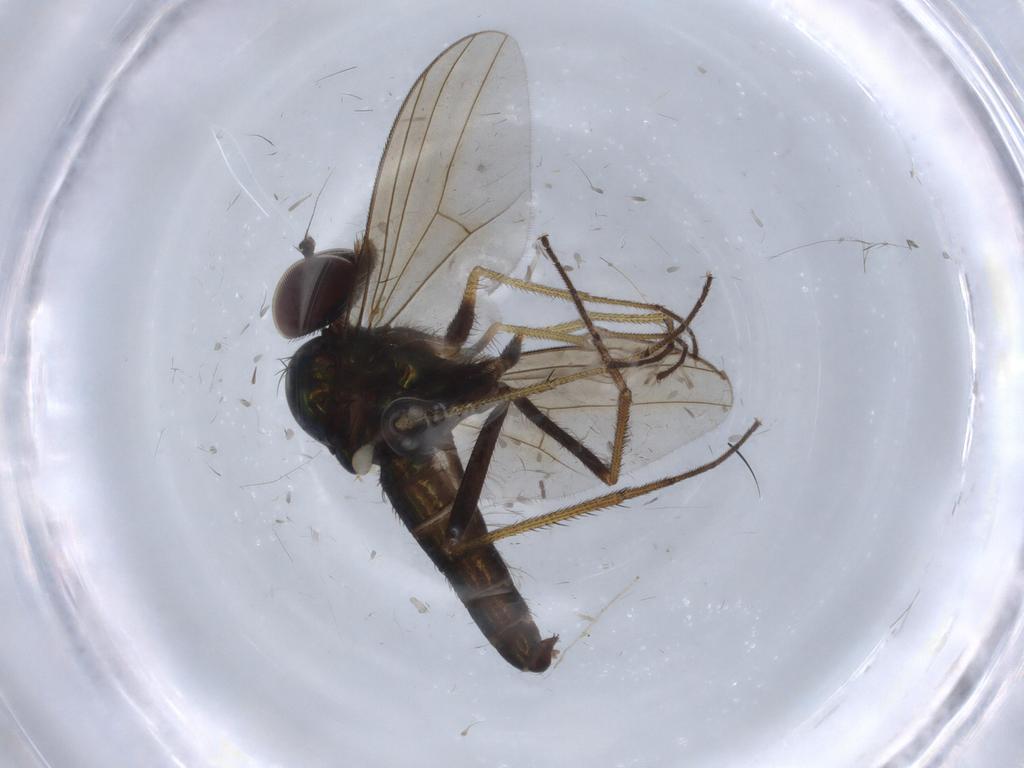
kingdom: Animalia
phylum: Arthropoda
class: Insecta
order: Diptera
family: Dolichopodidae
